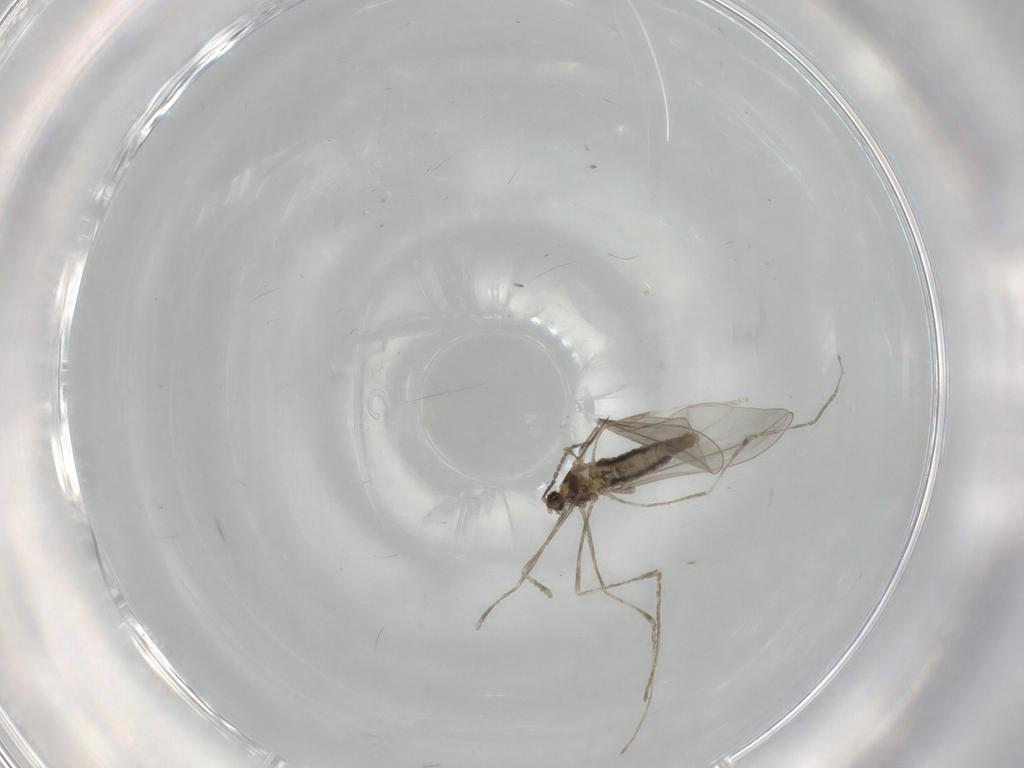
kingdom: Animalia
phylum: Arthropoda
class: Insecta
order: Diptera
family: Cecidomyiidae
